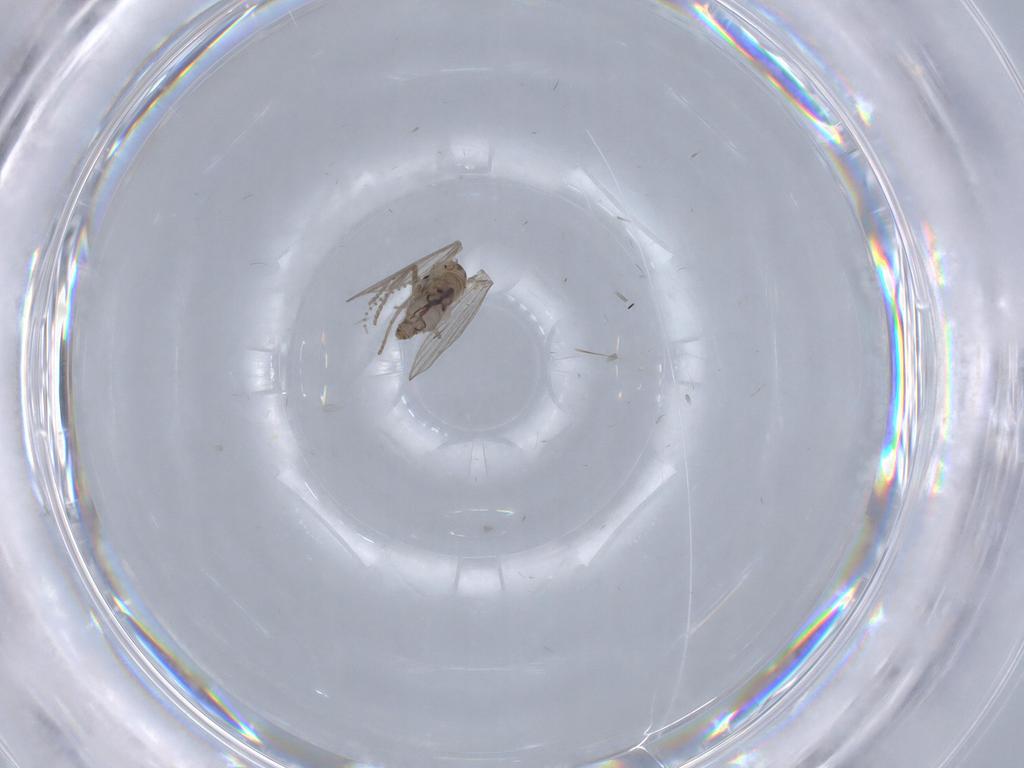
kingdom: Animalia
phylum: Arthropoda
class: Insecta
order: Diptera
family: Psychodidae
